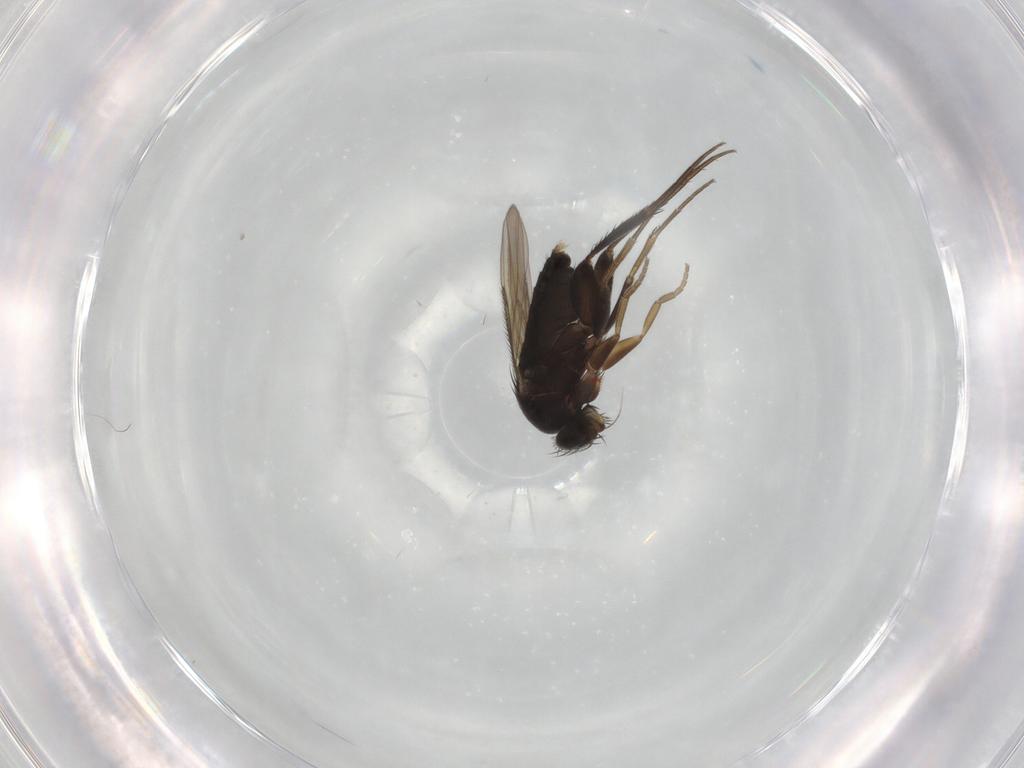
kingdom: Animalia
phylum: Arthropoda
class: Insecta
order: Diptera
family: Phoridae
